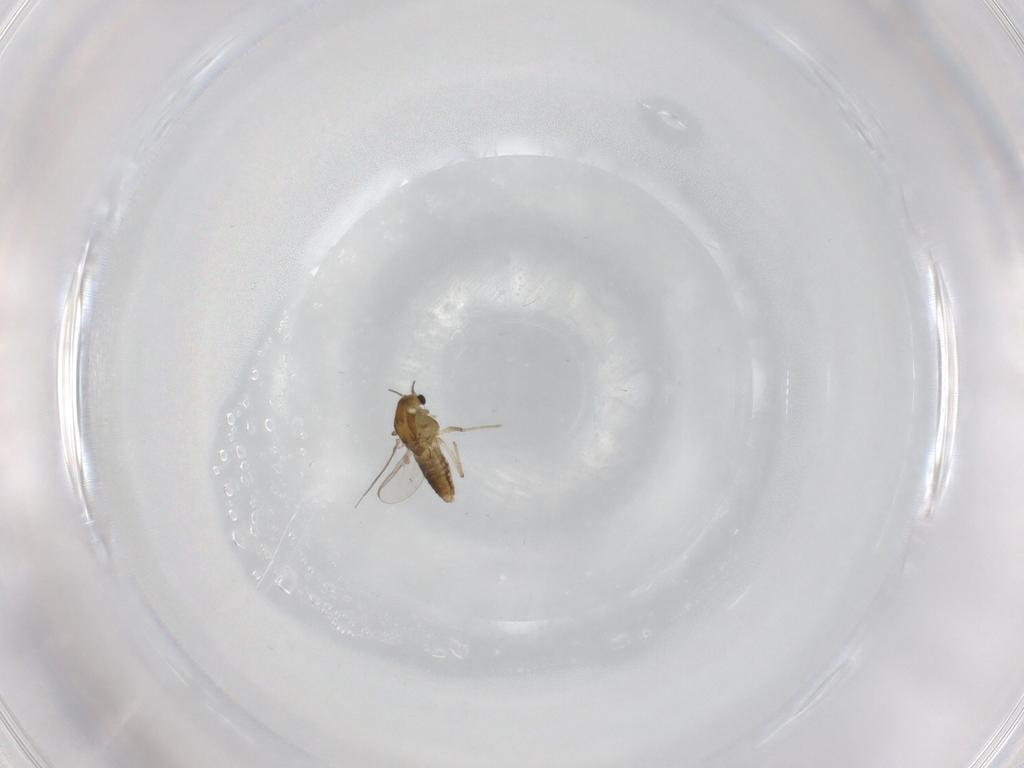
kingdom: Animalia
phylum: Arthropoda
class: Insecta
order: Diptera
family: Chironomidae
